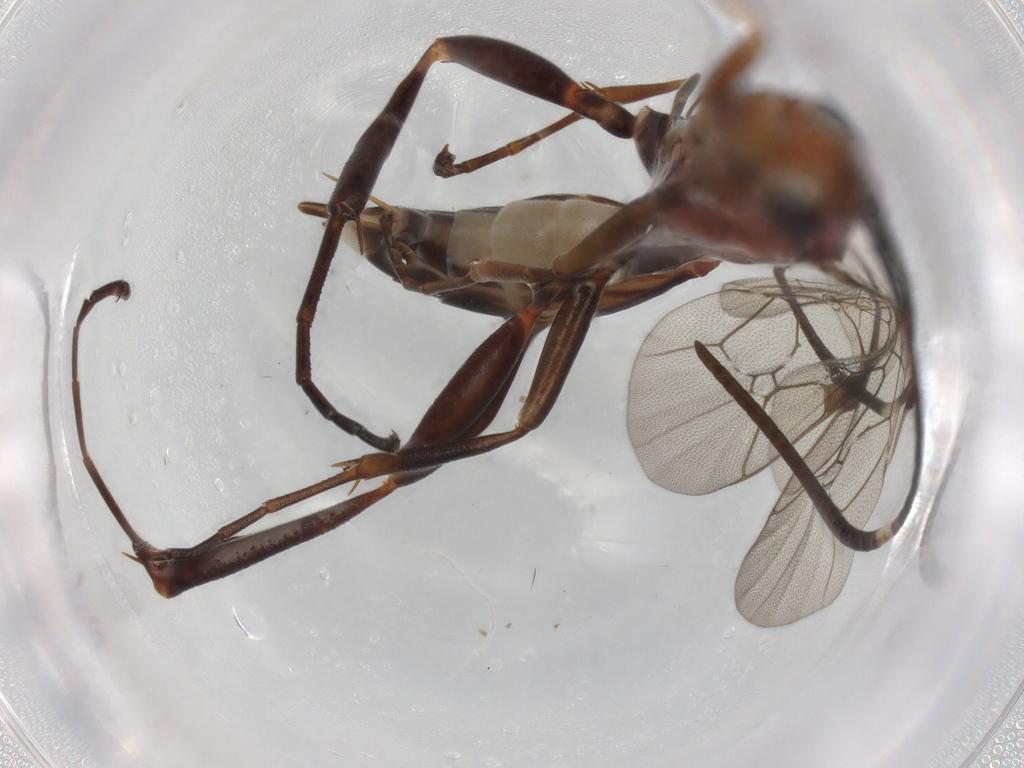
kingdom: Animalia
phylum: Arthropoda
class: Insecta
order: Hymenoptera
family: Ichneumonidae
